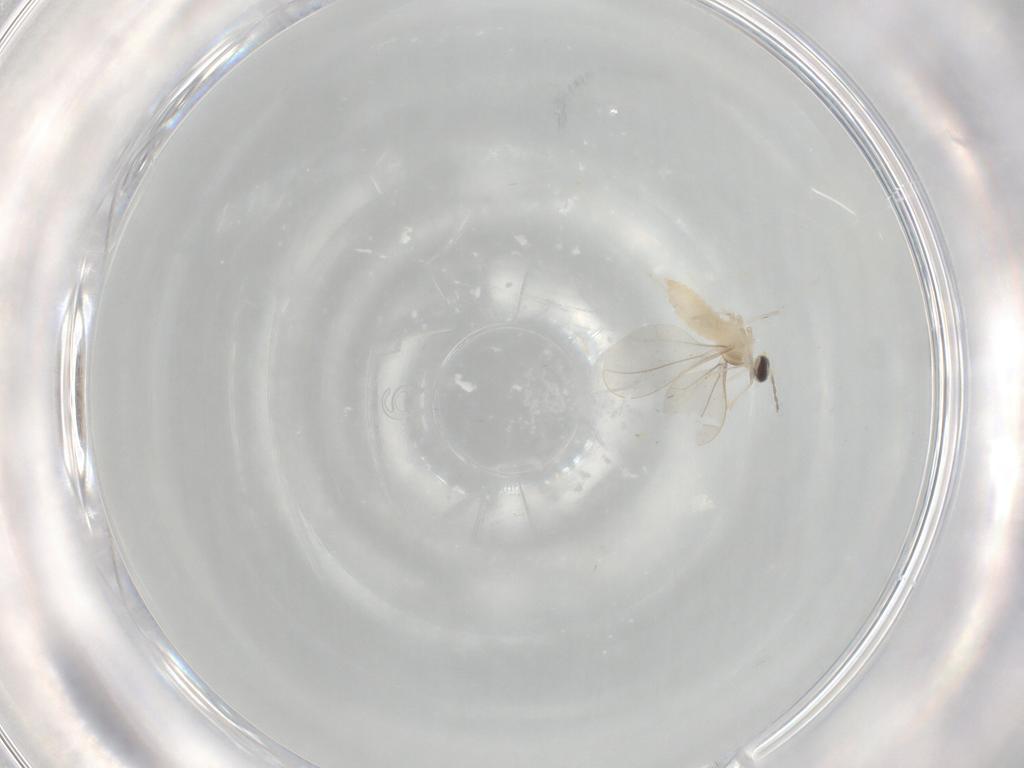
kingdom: Animalia
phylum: Arthropoda
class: Insecta
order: Diptera
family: Cecidomyiidae
